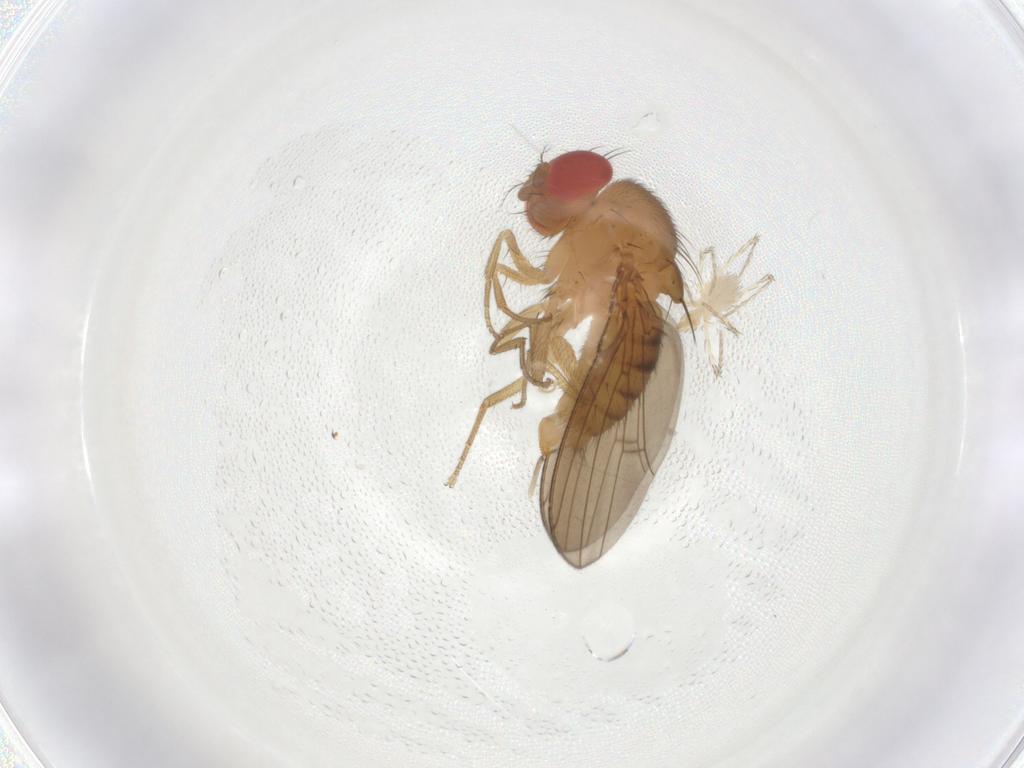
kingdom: Animalia
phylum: Arthropoda
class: Insecta
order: Diptera
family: Drosophilidae
